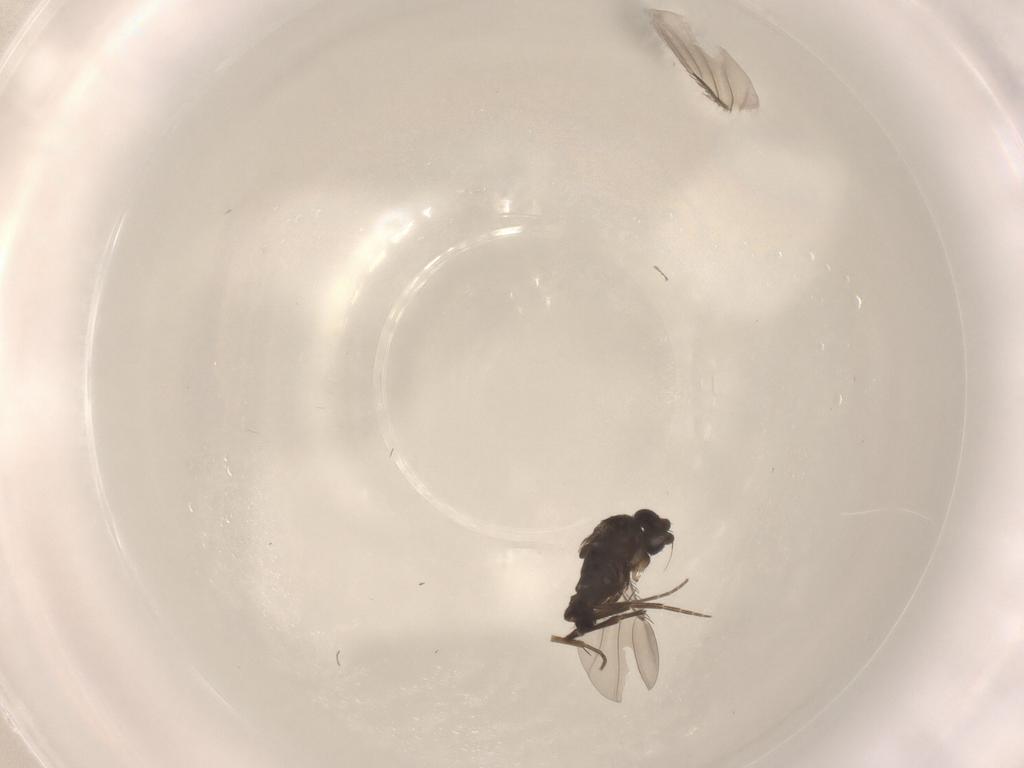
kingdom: Animalia
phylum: Arthropoda
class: Insecta
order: Diptera
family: Phoridae
